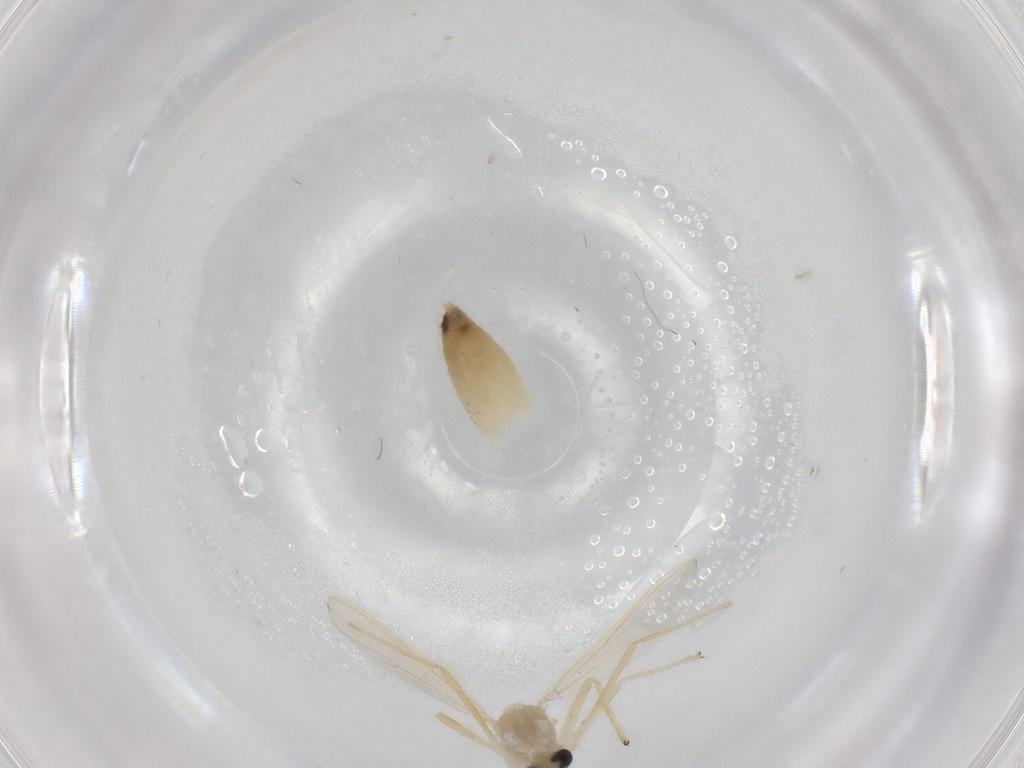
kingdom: Animalia
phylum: Arthropoda
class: Insecta
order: Diptera
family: Chironomidae
